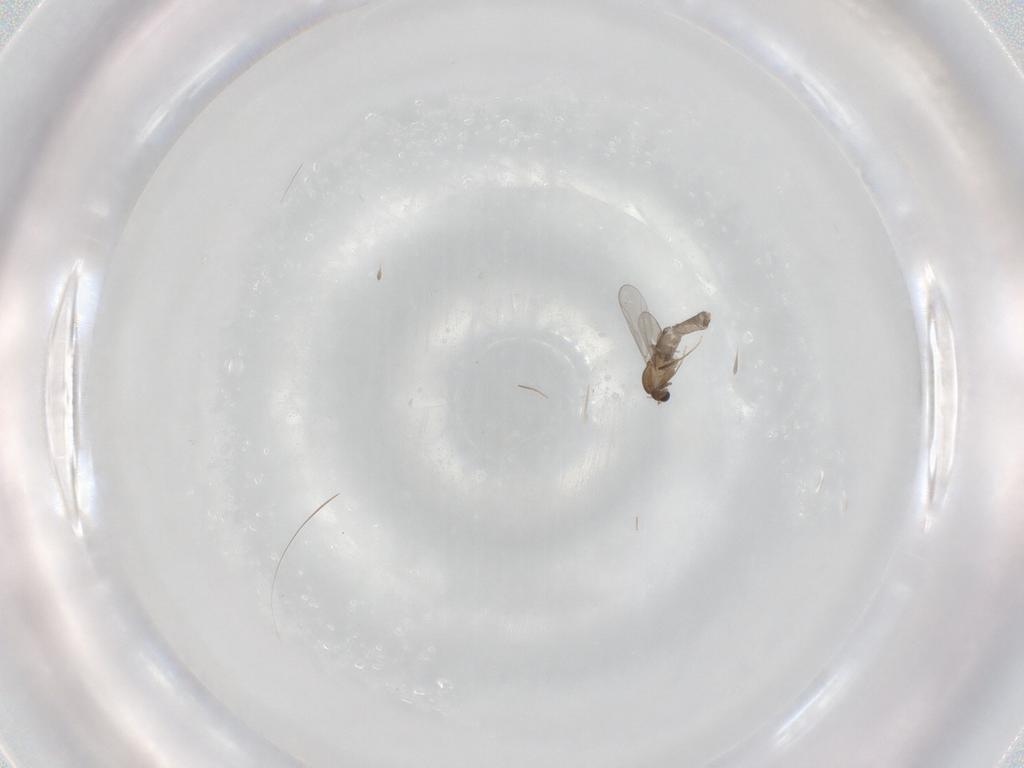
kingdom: Animalia
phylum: Arthropoda
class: Insecta
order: Diptera
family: Chironomidae
